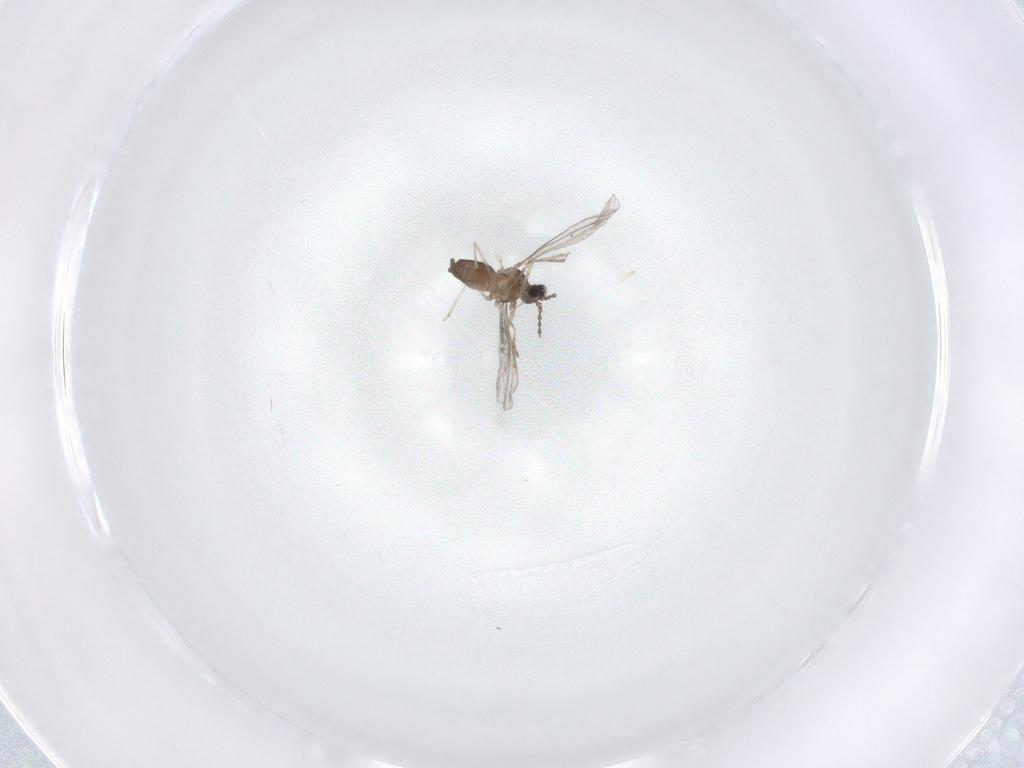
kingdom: Animalia
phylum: Arthropoda
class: Insecta
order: Diptera
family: Cecidomyiidae
